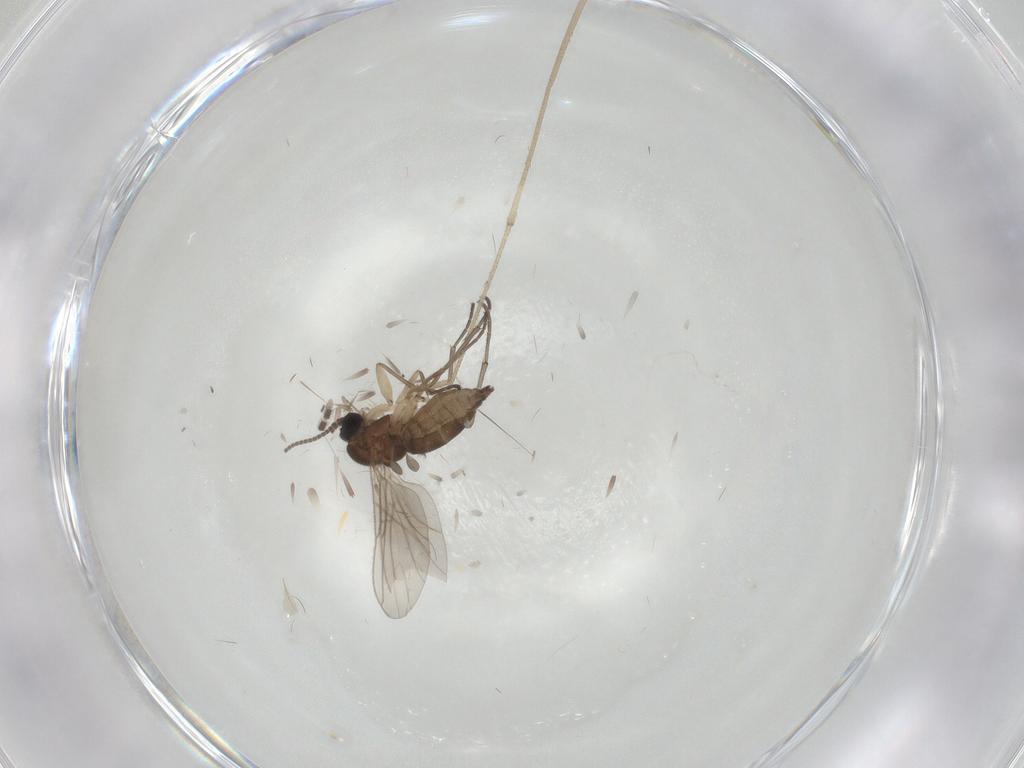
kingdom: Animalia
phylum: Arthropoda
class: Insecta
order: Diptera
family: Sciaridae
